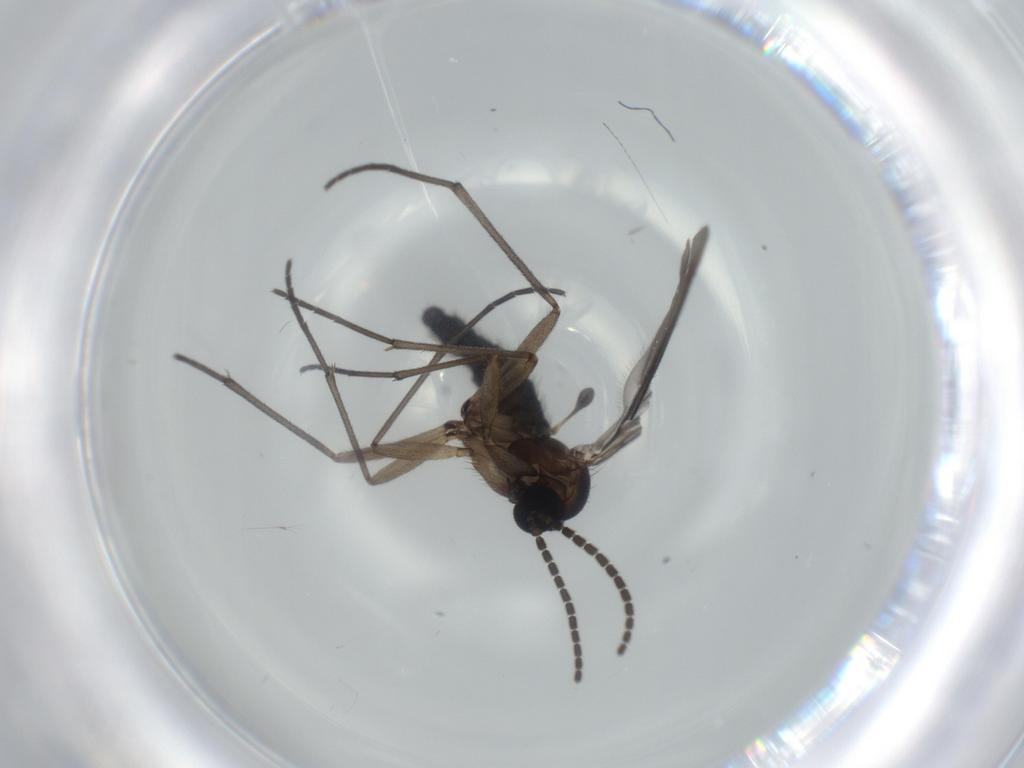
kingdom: Animalia
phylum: Arthropoda
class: Insecta
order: Diptera
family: Sciaridae
